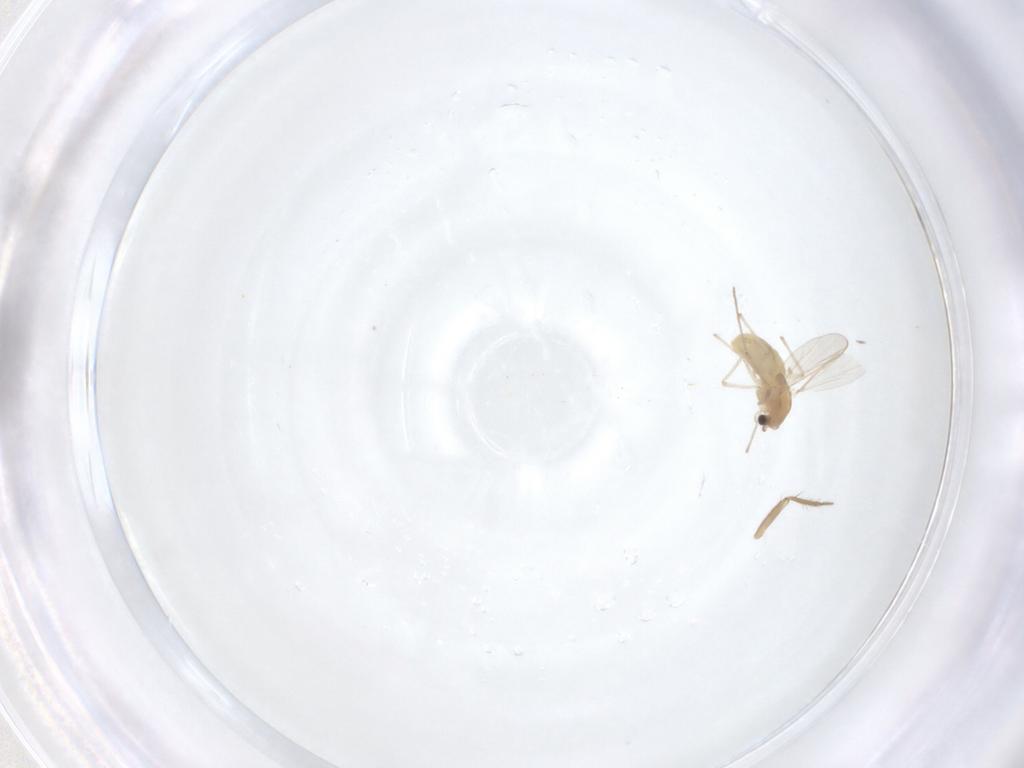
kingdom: Animalia
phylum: Arthropoda
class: Insecta
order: Diptera
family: Chironomidae
